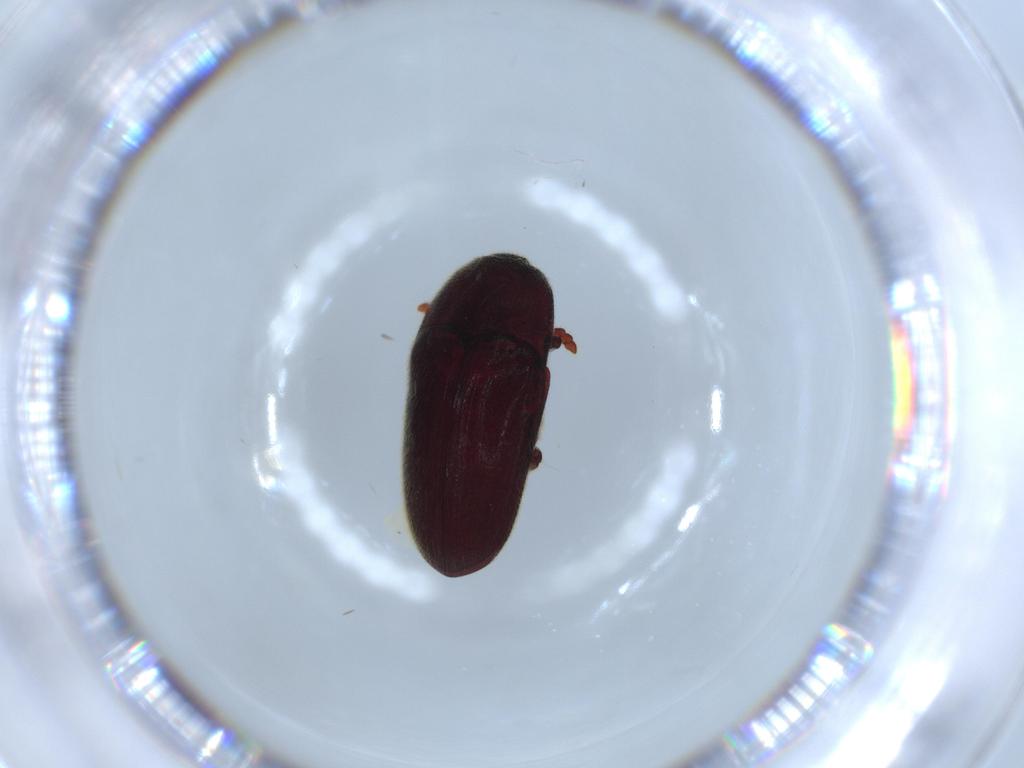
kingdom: Animalia
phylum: Arthropoda
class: Insecta
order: Coleoptera
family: Throscidae
